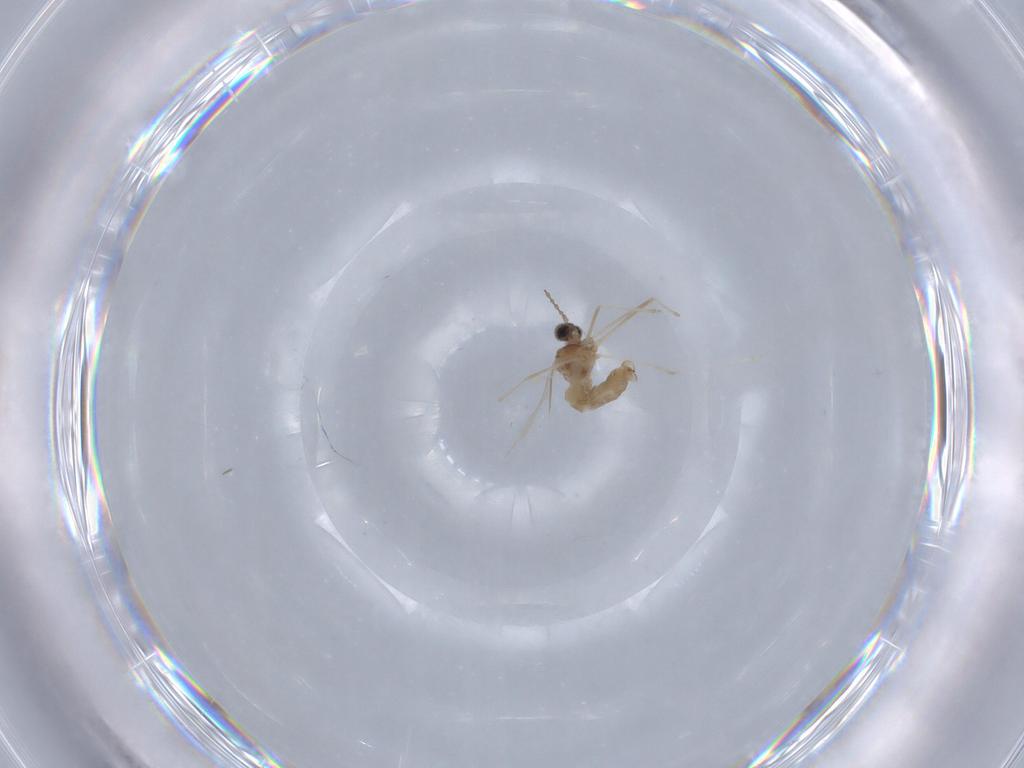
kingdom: Animalia
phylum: Arthropoda
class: Insecta
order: Diptera
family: Cecidomyiidae
